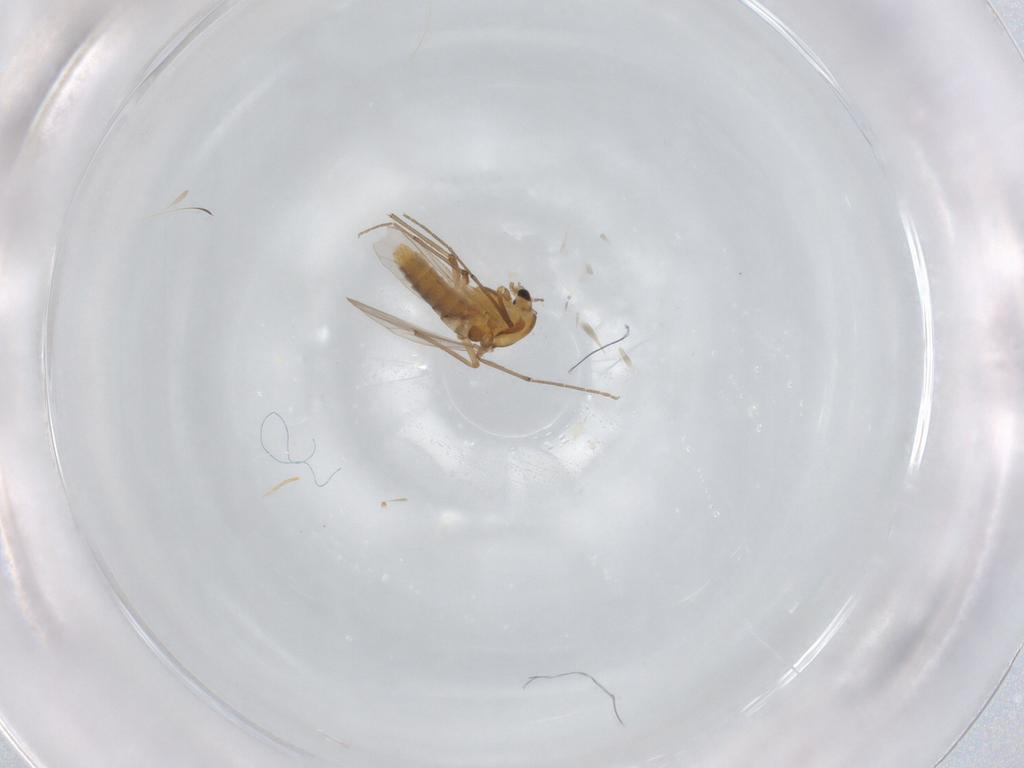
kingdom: Animalia
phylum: Arthropoda
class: Insecta
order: Diptera
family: Chironomidae
